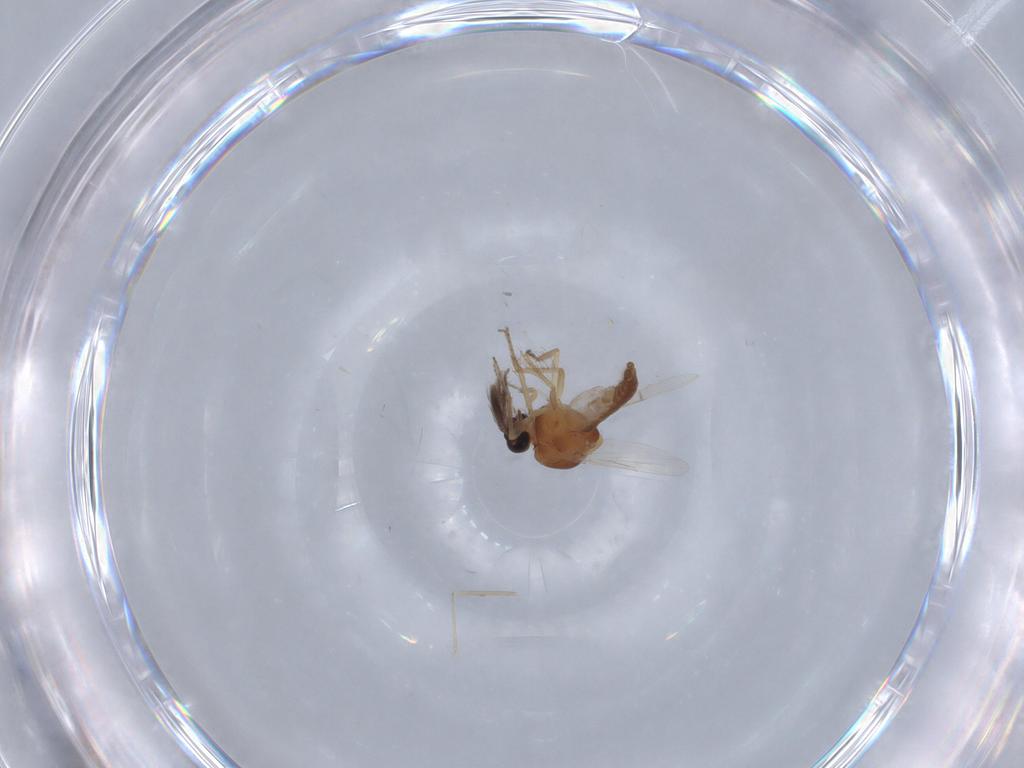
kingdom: Animalia
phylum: Arthropoda
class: Insecta
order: Diptera
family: Ceratopogonidae
